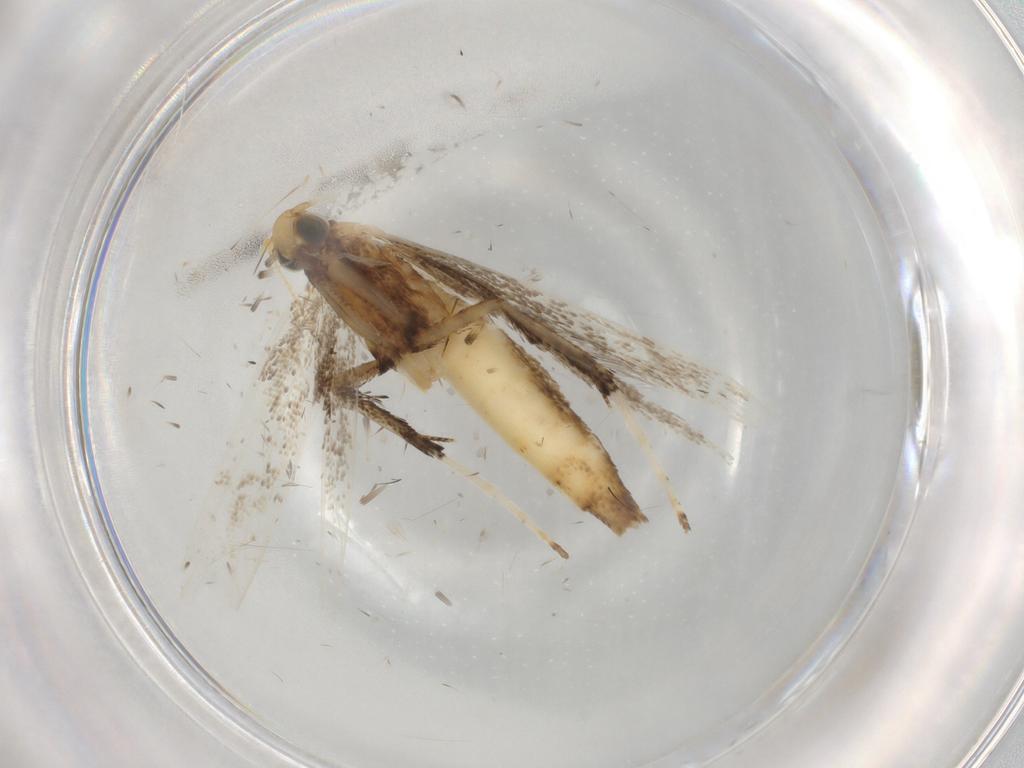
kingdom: Animalia
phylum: Arthropoda
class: Insecta
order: Lepidoptera
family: Gracillariidae
